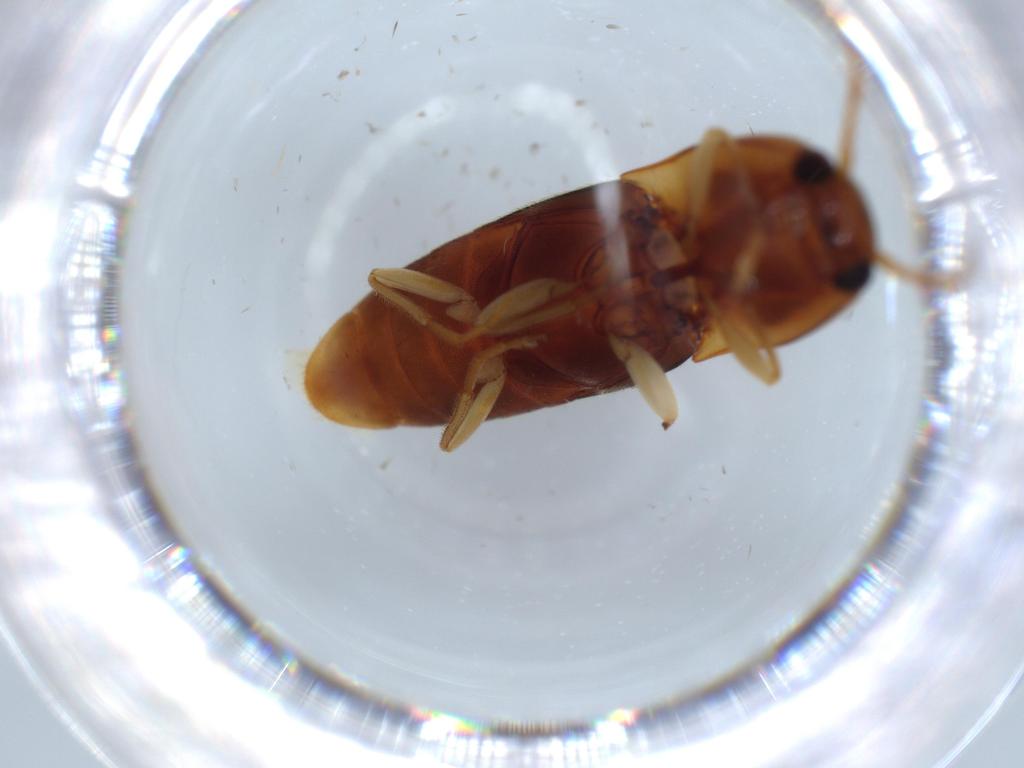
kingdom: Animalia
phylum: Arthropoda
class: Insecta
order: Coleoptera
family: Elateridae
